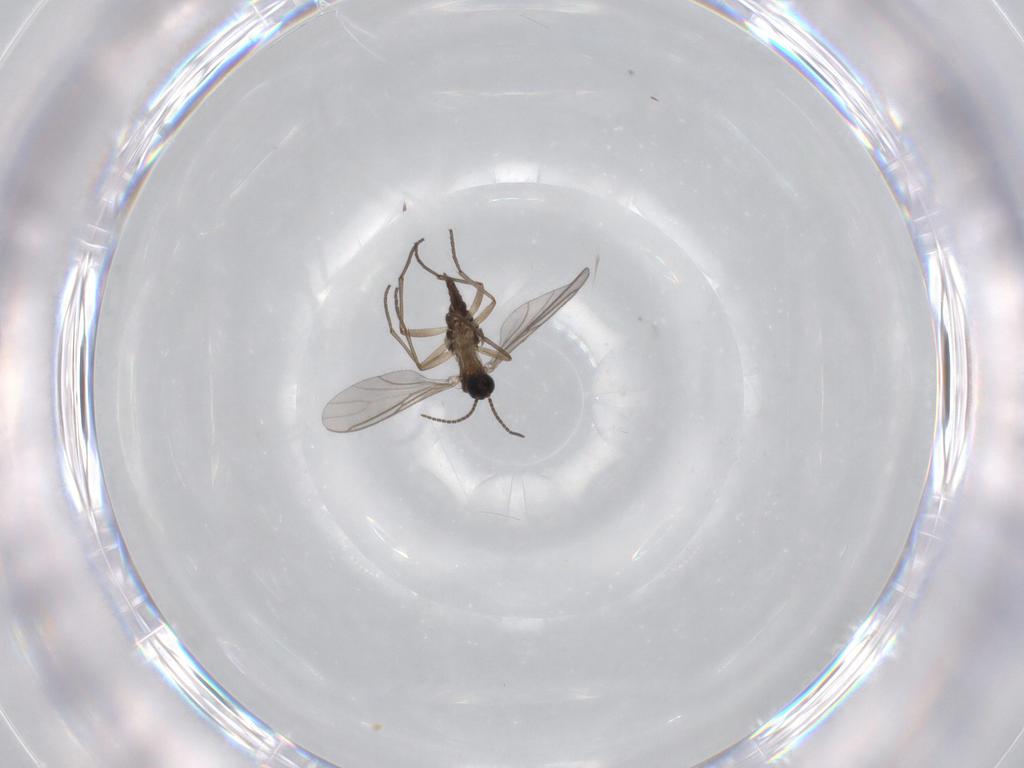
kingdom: Animalia
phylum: Arthropoda
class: Insecta
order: Diptera
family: Sciaridae
